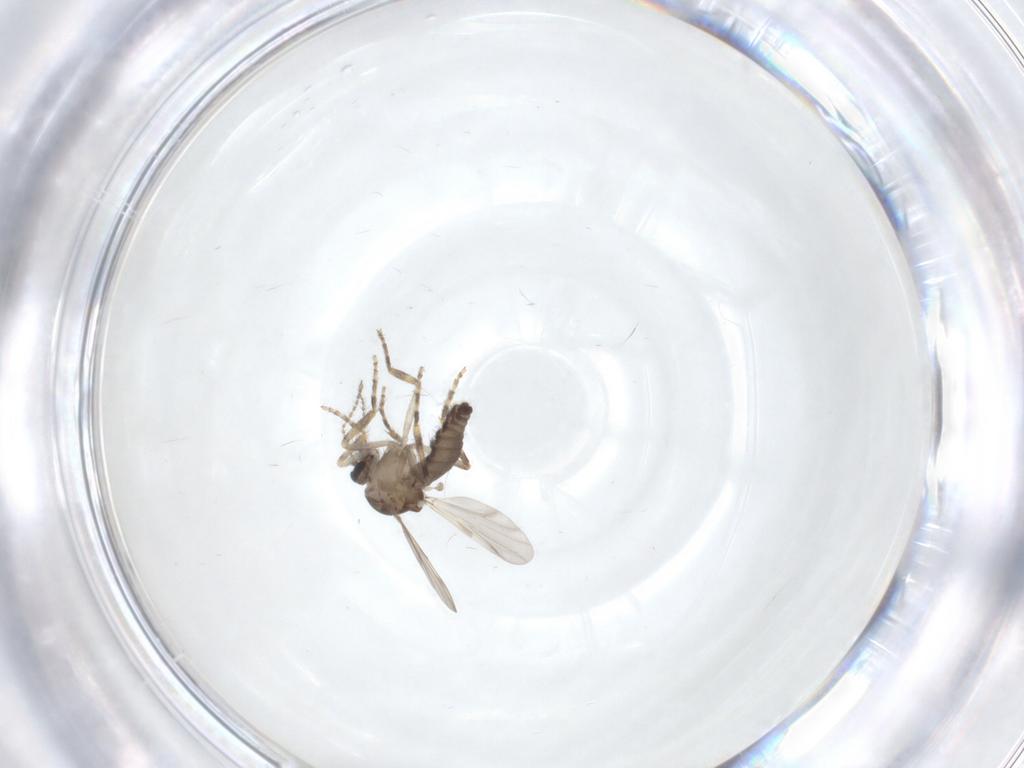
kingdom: Animalia
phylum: Arthropoda
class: Insecta
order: Diptera
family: Ceratopogonidae
